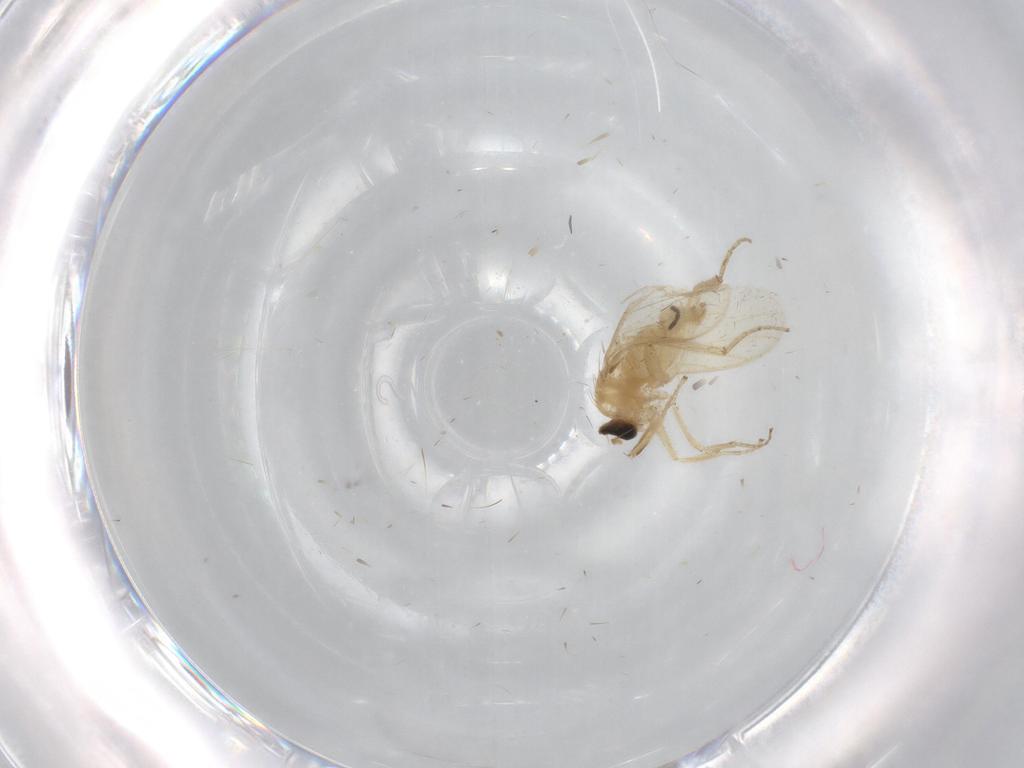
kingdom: Animalia
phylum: Arthropoda
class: Insecta
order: Diptera
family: Hybotidae
